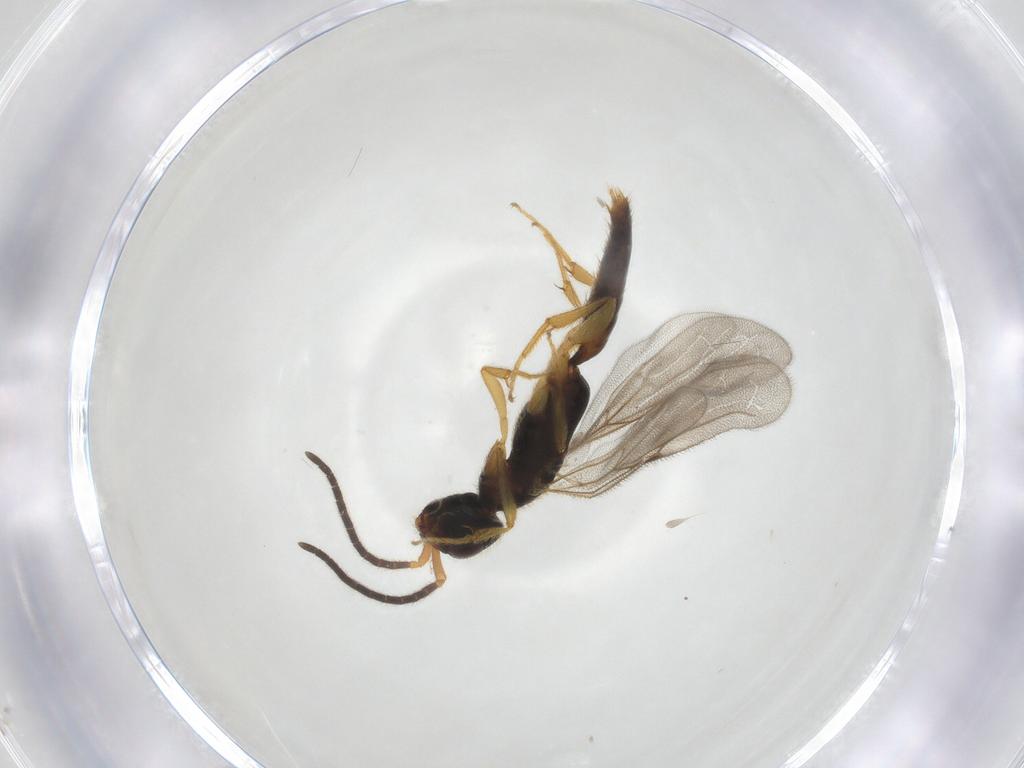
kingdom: Animalia
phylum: Arthropoda
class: Insecta
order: Hymenoptera
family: Bethylidae
